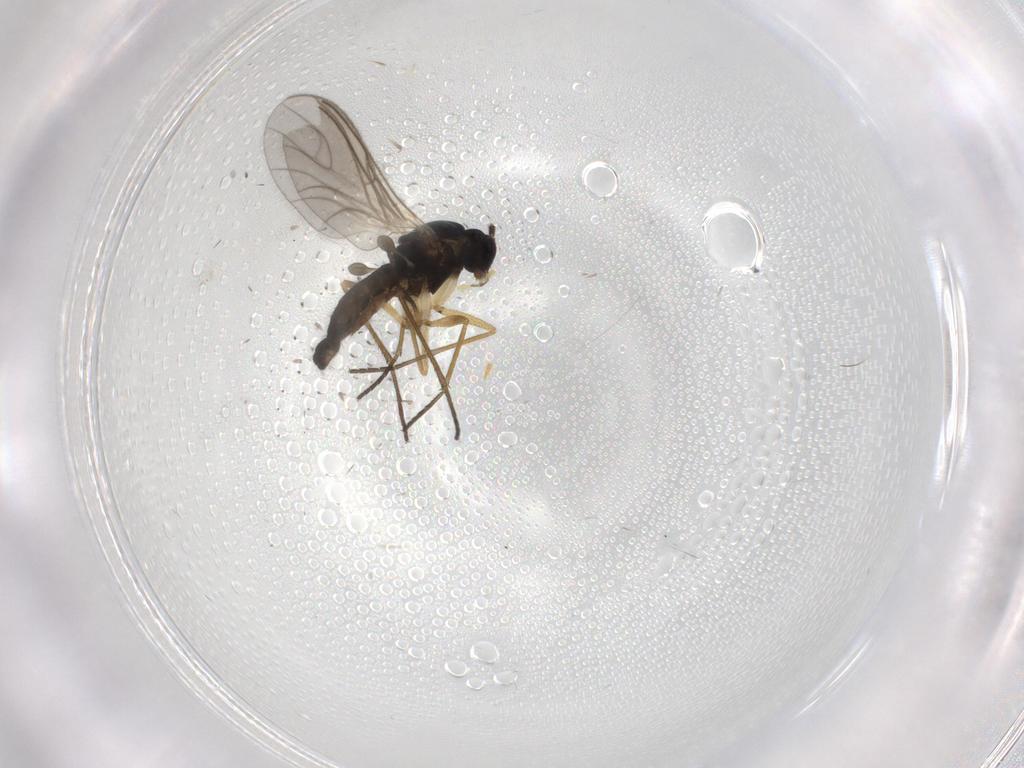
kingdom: Animalia
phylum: Arthropoda
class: Insecta
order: Diptera
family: Sciaridae
